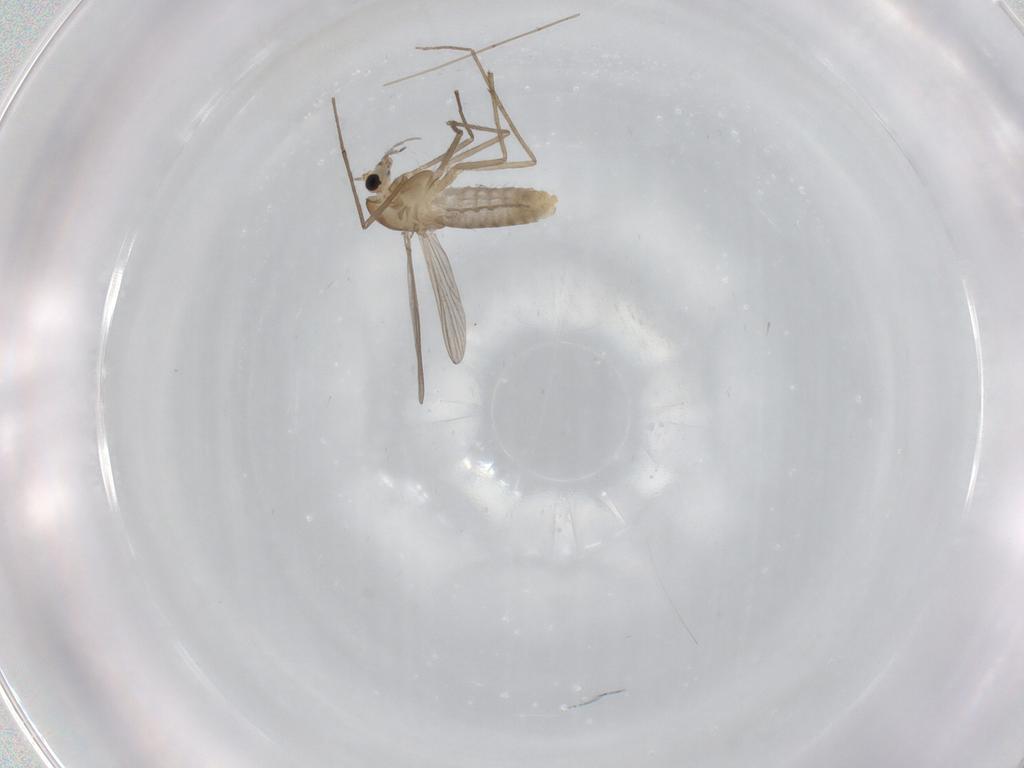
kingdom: Animalia
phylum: Arthropoda
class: Insecta
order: Diptera
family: Chironomidae
